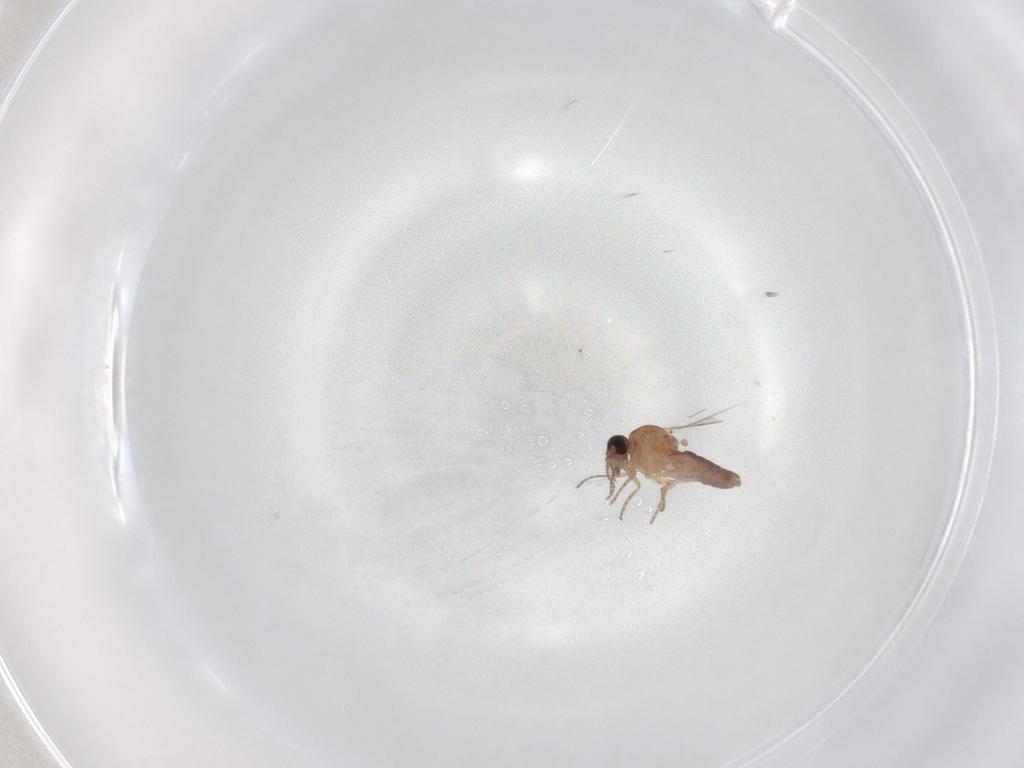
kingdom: Animalia
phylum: Arthropoda
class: Insecta
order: Diptera
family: Ceratopogonidae
